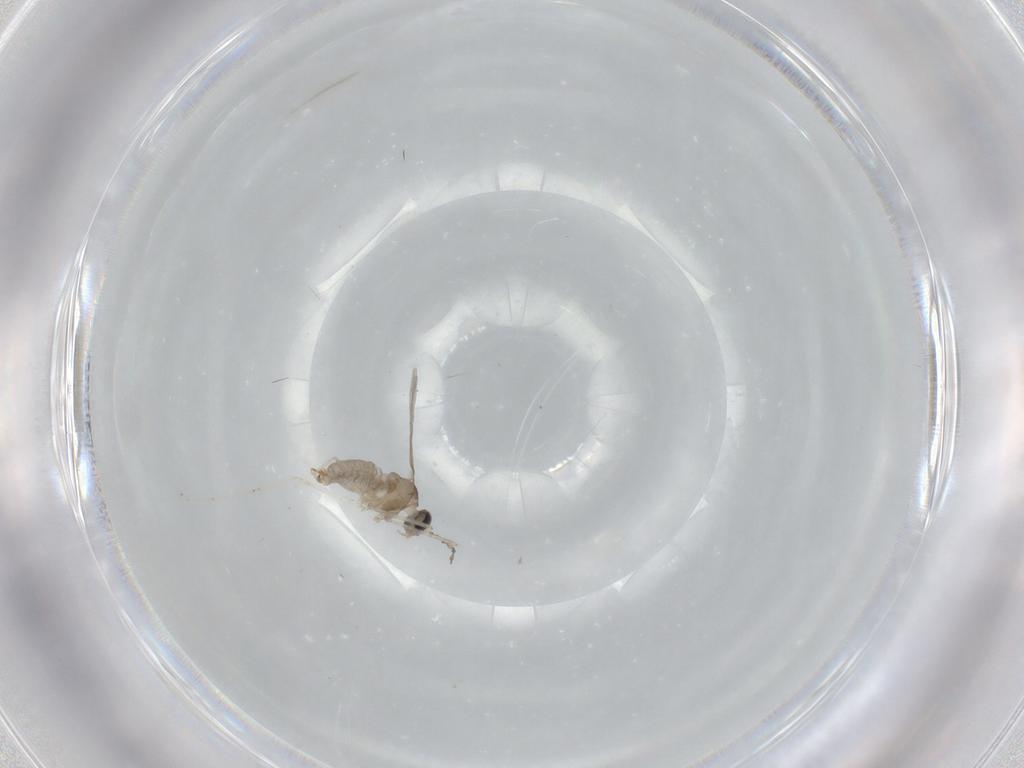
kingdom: Animalia
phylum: Arthropoda
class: Insecta
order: Diptera
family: Cecidomyiidae
